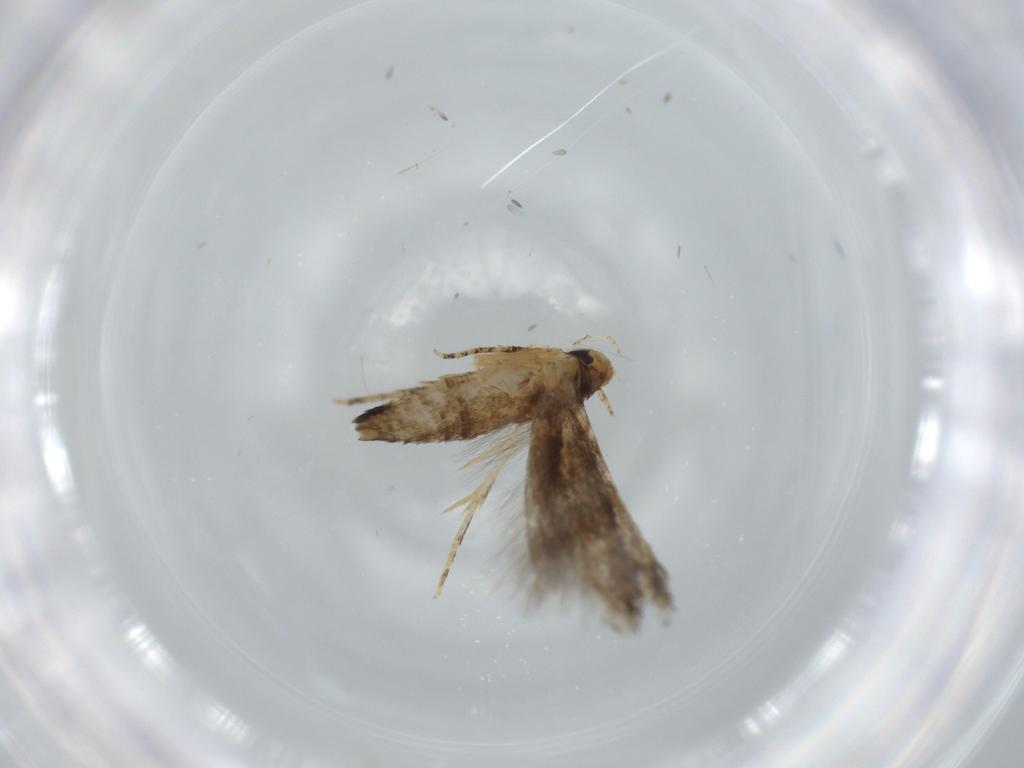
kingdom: Animalia
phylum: Arthropoda
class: Insecta
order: Lepidoptera
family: Momphidae
